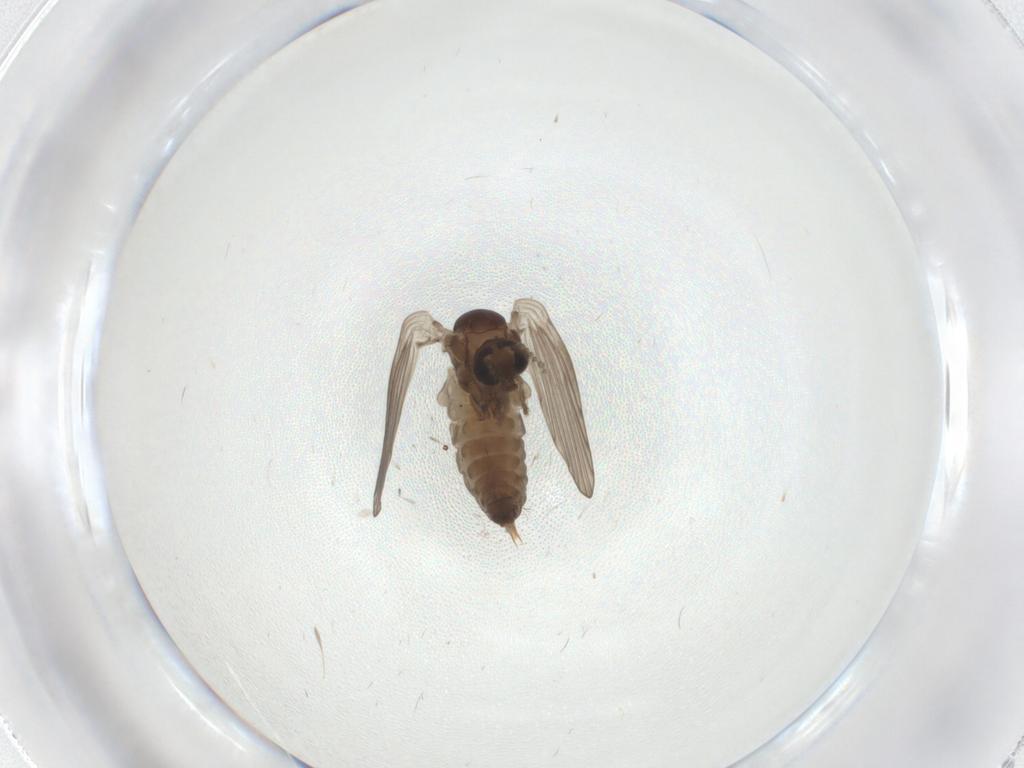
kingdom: Animalia
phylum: Arthropoda
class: Insecta
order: Diptera
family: Psychodidae
